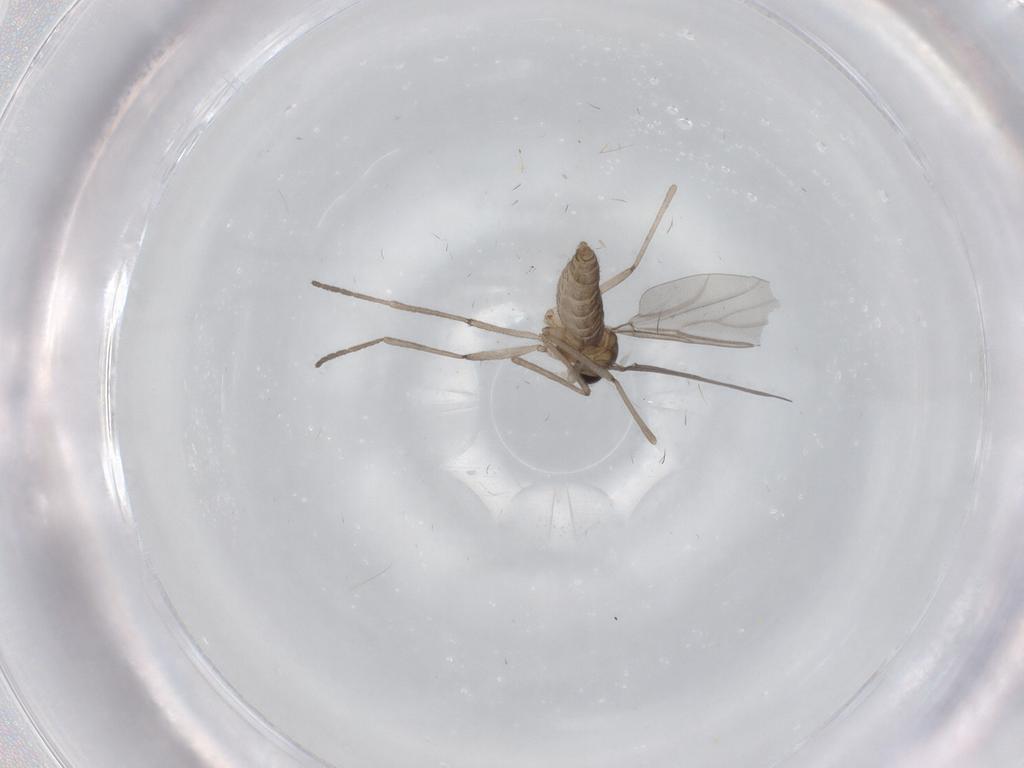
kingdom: Animalia
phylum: Arthropoda
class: Insecta
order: Diptera
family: Cecidomyiidae
